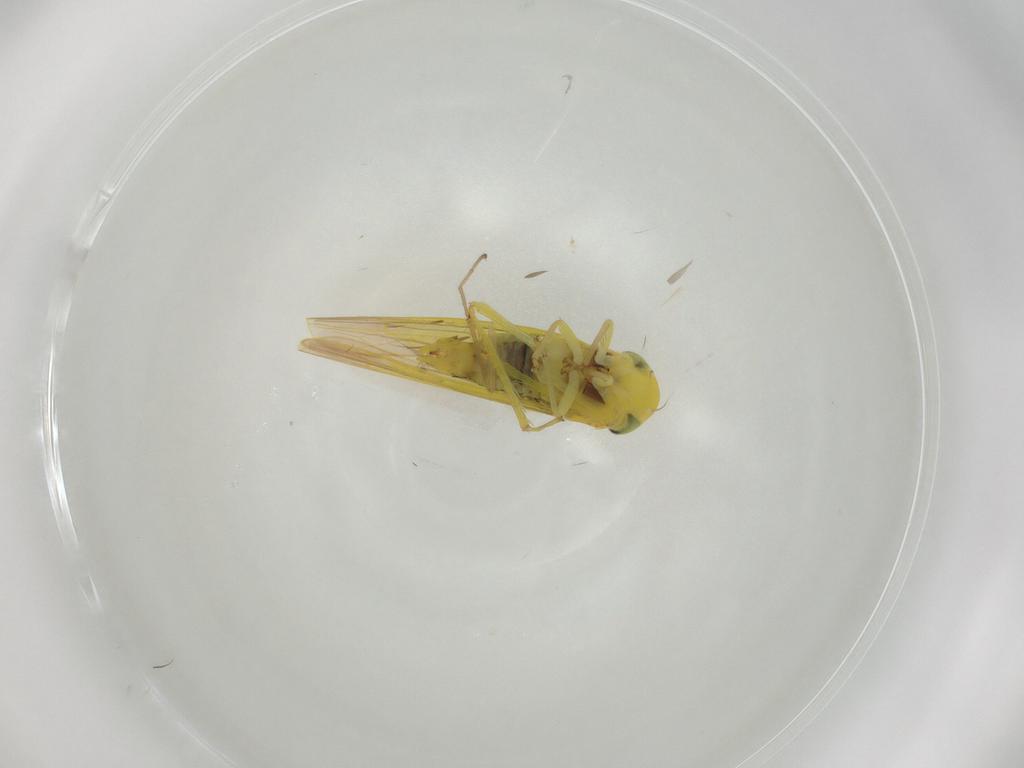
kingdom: Animalia
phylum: Arthropoda
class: Insecta
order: Hemiptera
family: Cicadellidae
